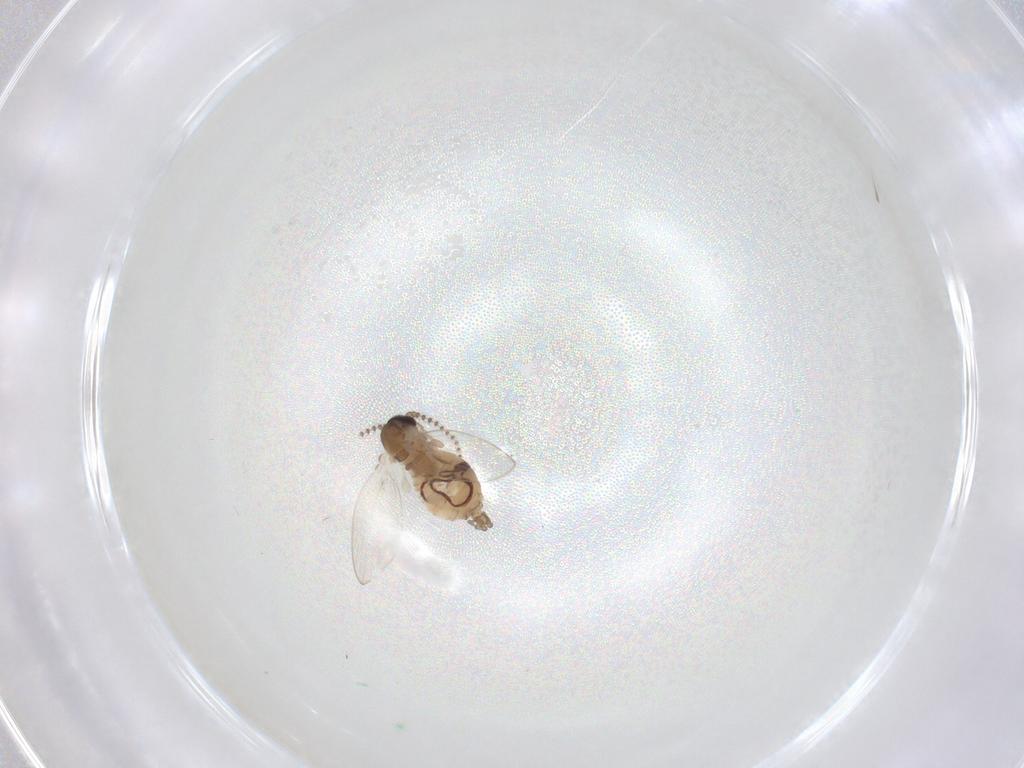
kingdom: Animalia
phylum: Arthropoda
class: Insecta
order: Diptera
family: Psychodidae
